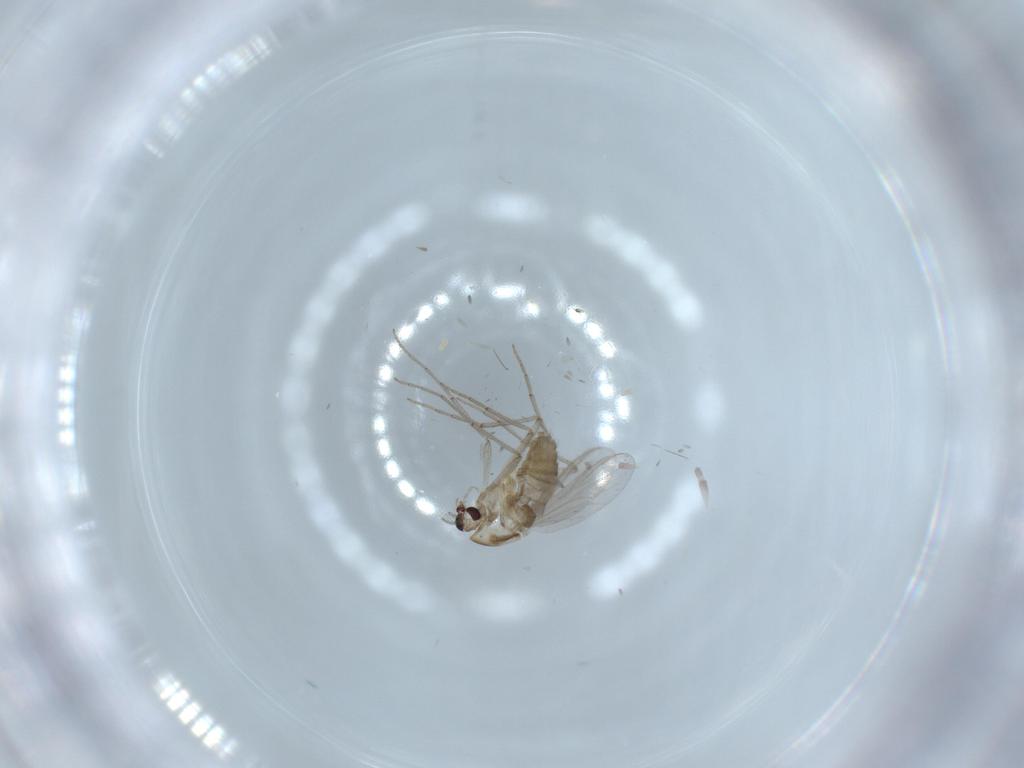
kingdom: Animalia
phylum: Arthropoda
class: Insecta
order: Diptera
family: Chironomidae
